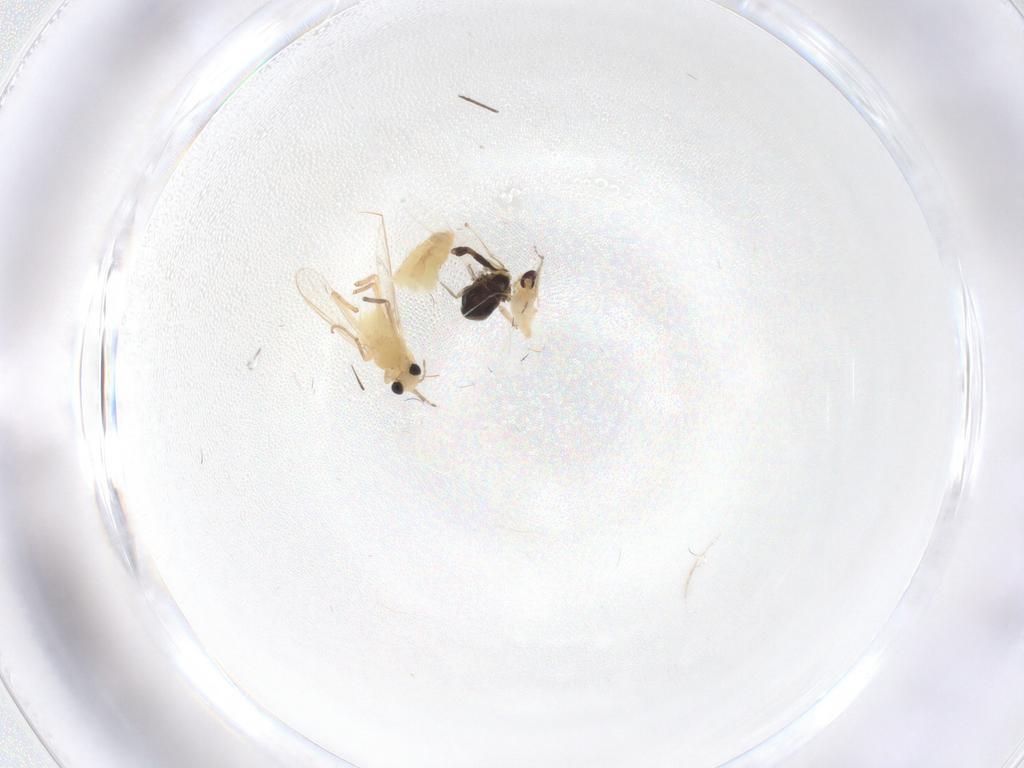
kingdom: Animalia
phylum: Arthropoda
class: Insecta
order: Diptera
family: Chironomidae
